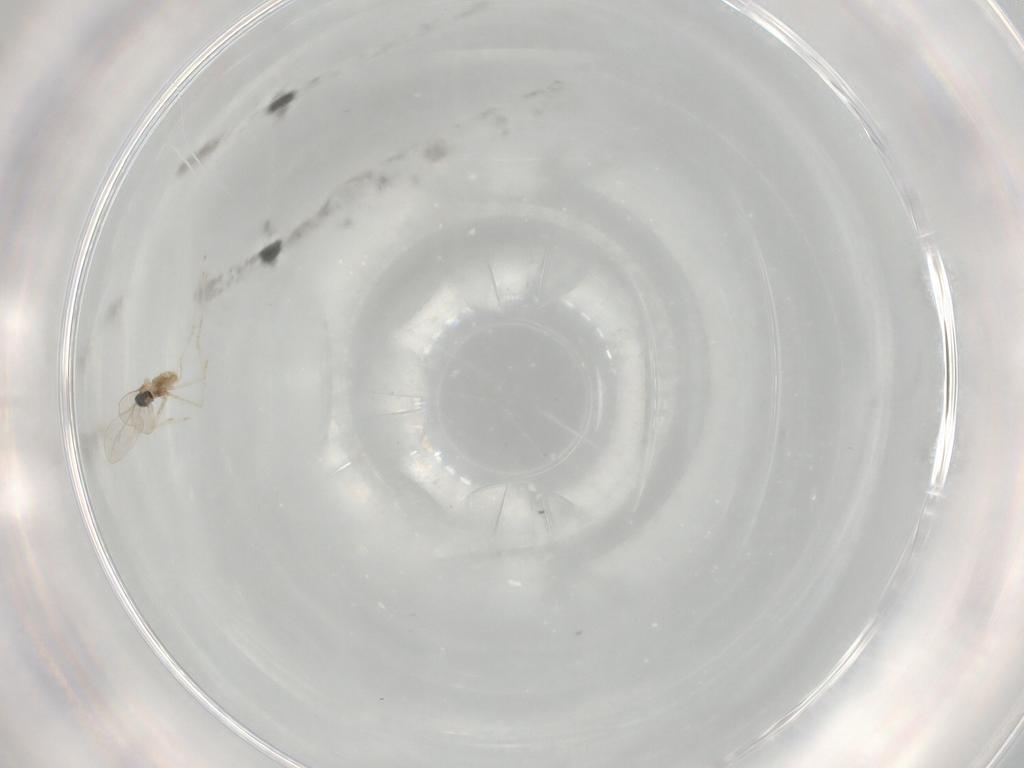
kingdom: Animalia
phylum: Arthropoda
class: Insecta
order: Diptera
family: Cecidomyiidae
